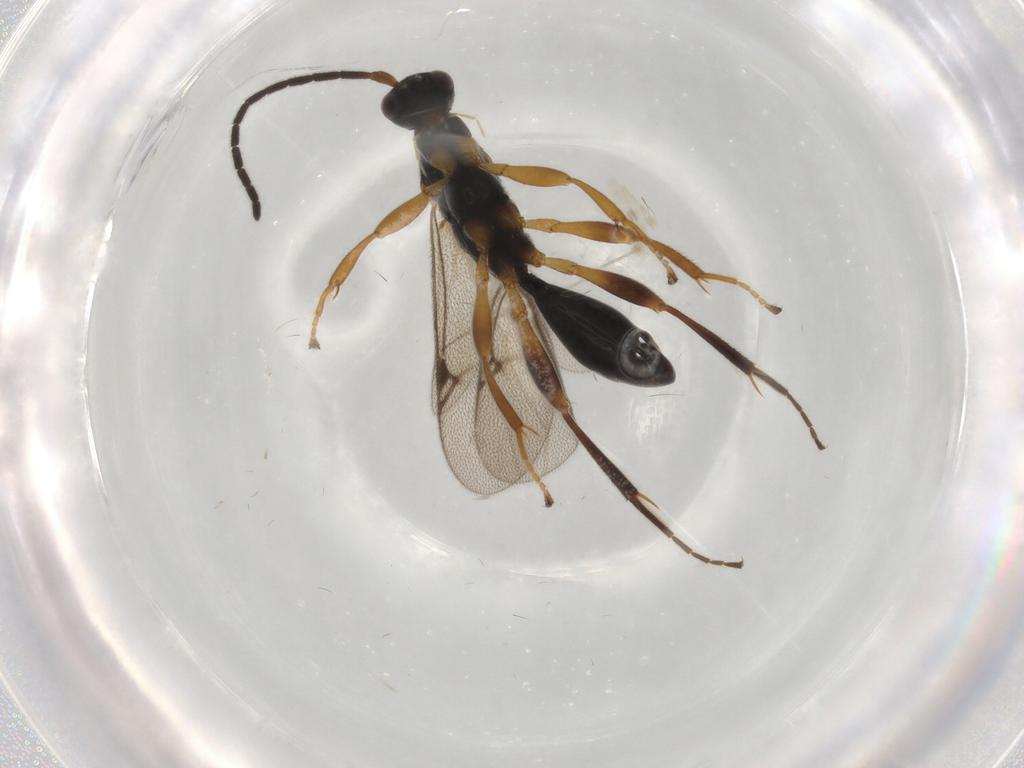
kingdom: Animalia
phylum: Arthropoda
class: Insecta
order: Hymenoptera
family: Proctotrupidae
